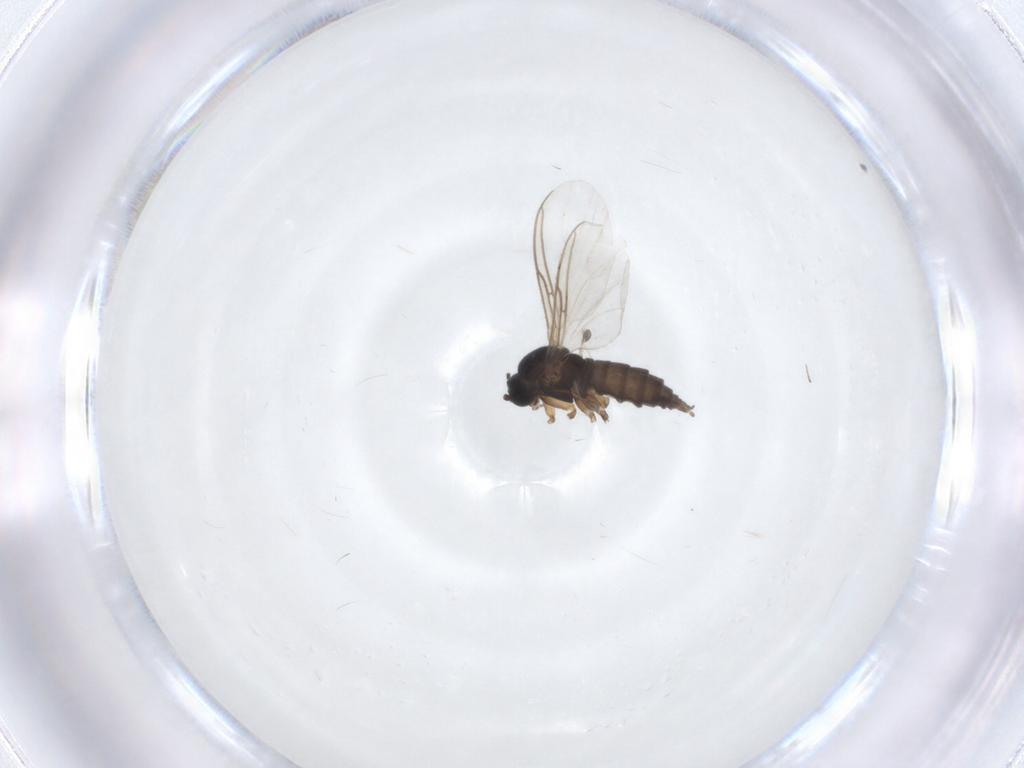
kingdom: Animalia
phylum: Arthropoda
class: Insecta
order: Diptera
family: Sciaridae
